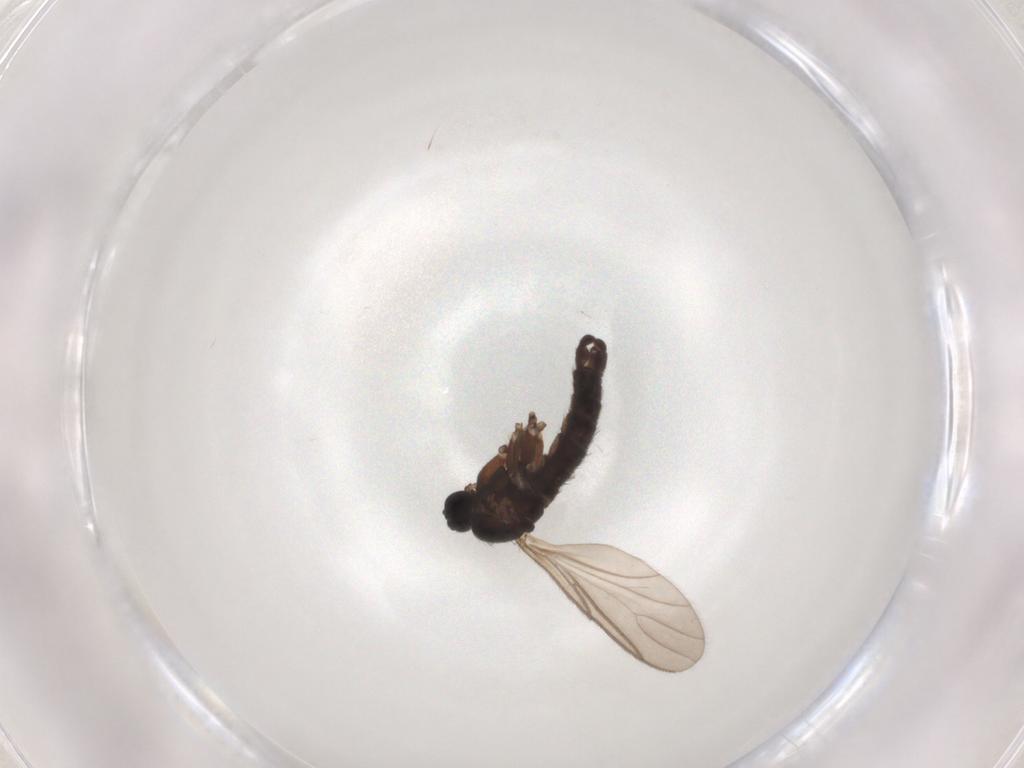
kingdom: Animalia
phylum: Arthropoda
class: Insecta
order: Diptera
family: Sciaridae
